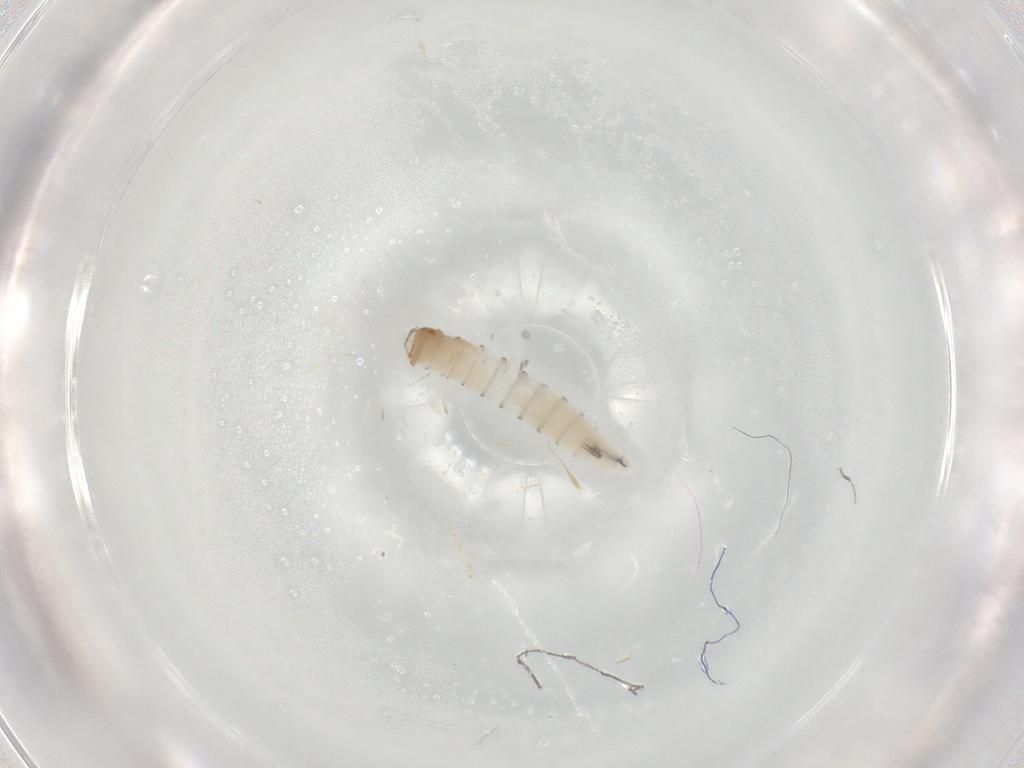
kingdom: Animalia
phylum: Arthropoda
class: Insecta
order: Diptera
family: Sarcophagidae
